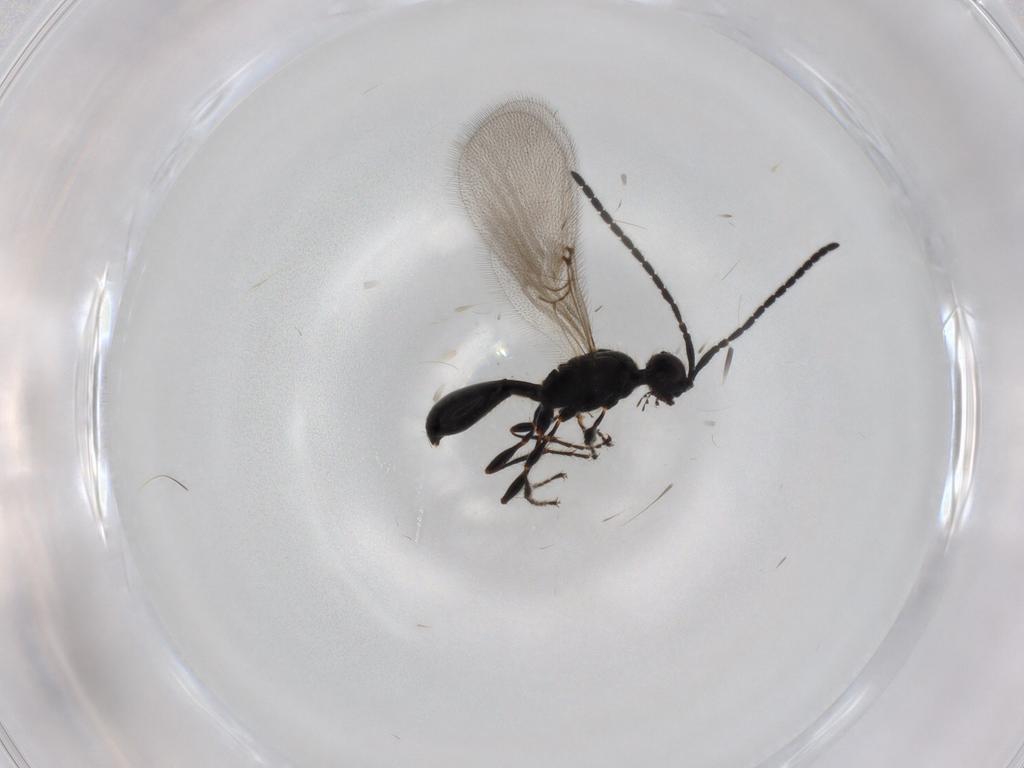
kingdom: Animalia
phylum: Arthropoda
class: Insecta
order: Hymenoptera
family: Diapriidae
